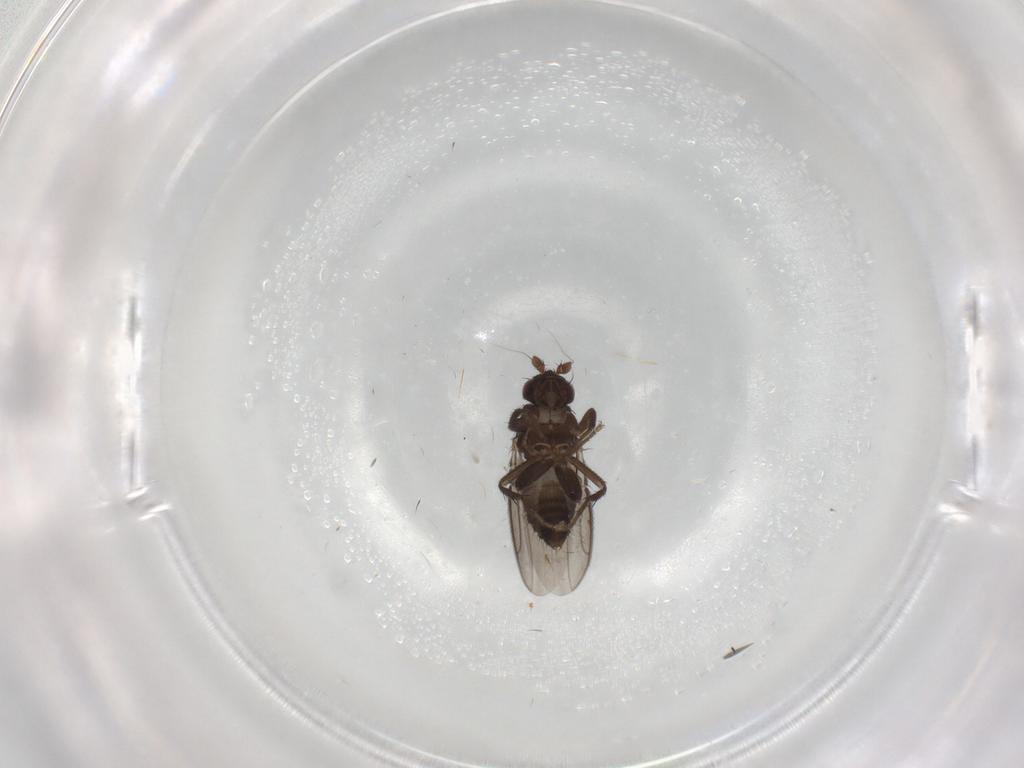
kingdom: Animalia
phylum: Arthropoda
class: Insecta
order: Diptera
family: Sphaeroceridae
